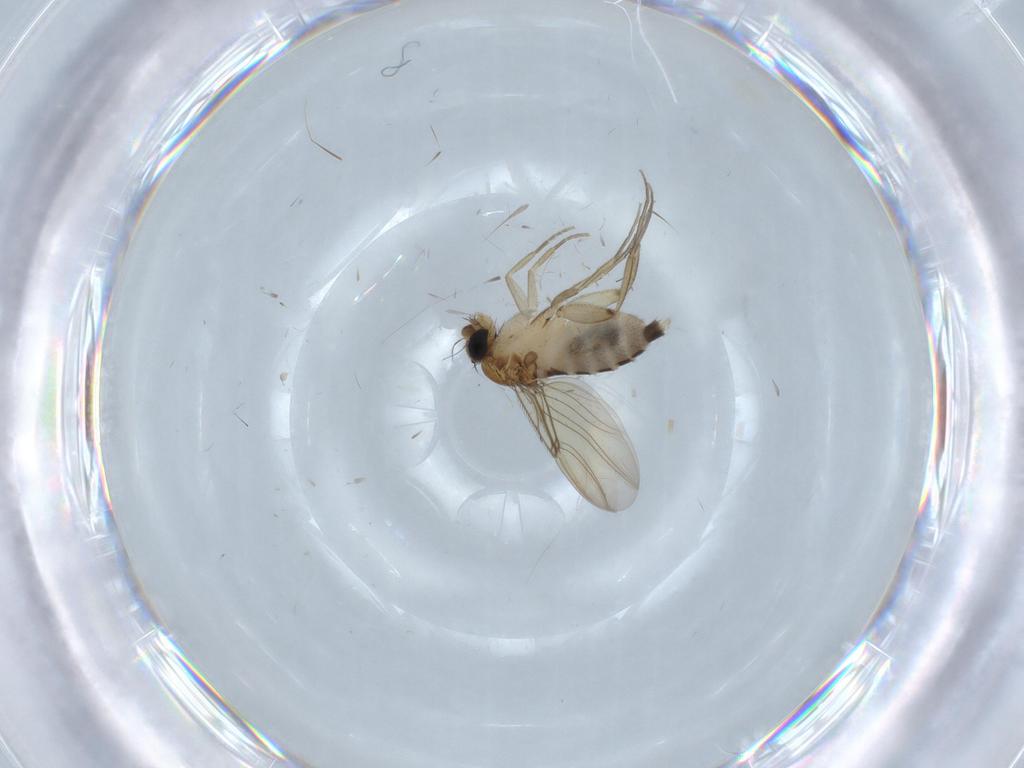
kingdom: Animalia
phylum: Arthropoda
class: Insecta
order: Diptera
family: Phoridae
